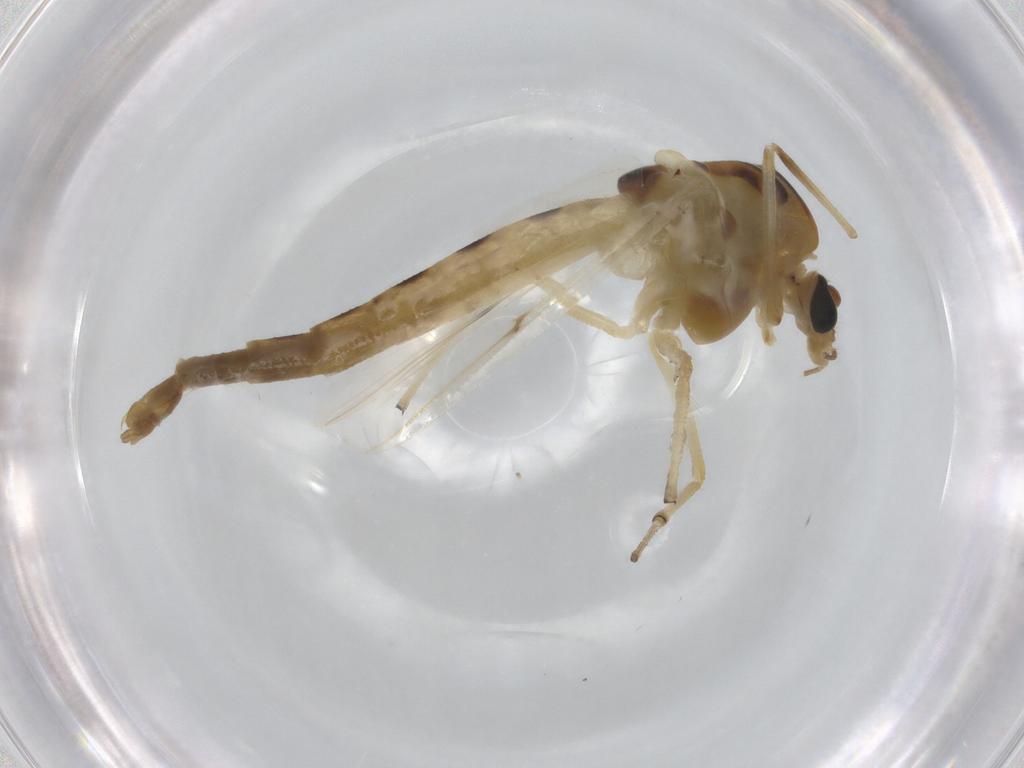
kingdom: Animalia
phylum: Arthropoda
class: Insecta
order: Diptera
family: Chironomidae
